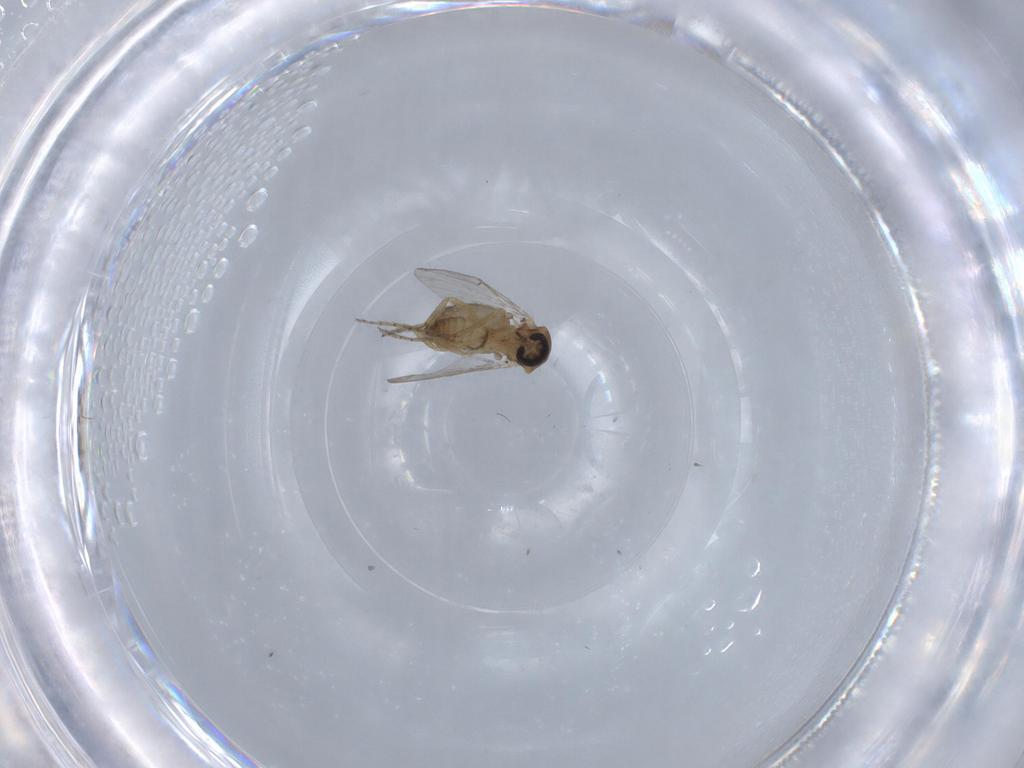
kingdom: Animalia
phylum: Arthropoda
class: Insecta
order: Diptera
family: Ceratopogonidae
